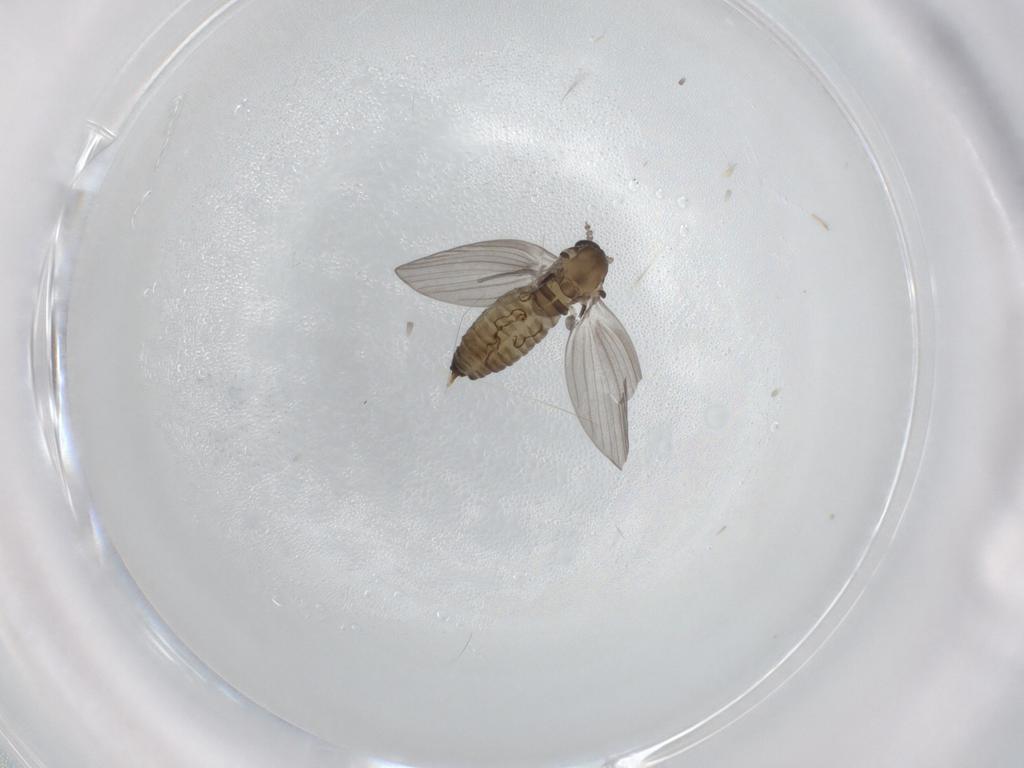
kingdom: Animalia
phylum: Arthropoda
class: Insecta
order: Diptera
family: Psychodidae
